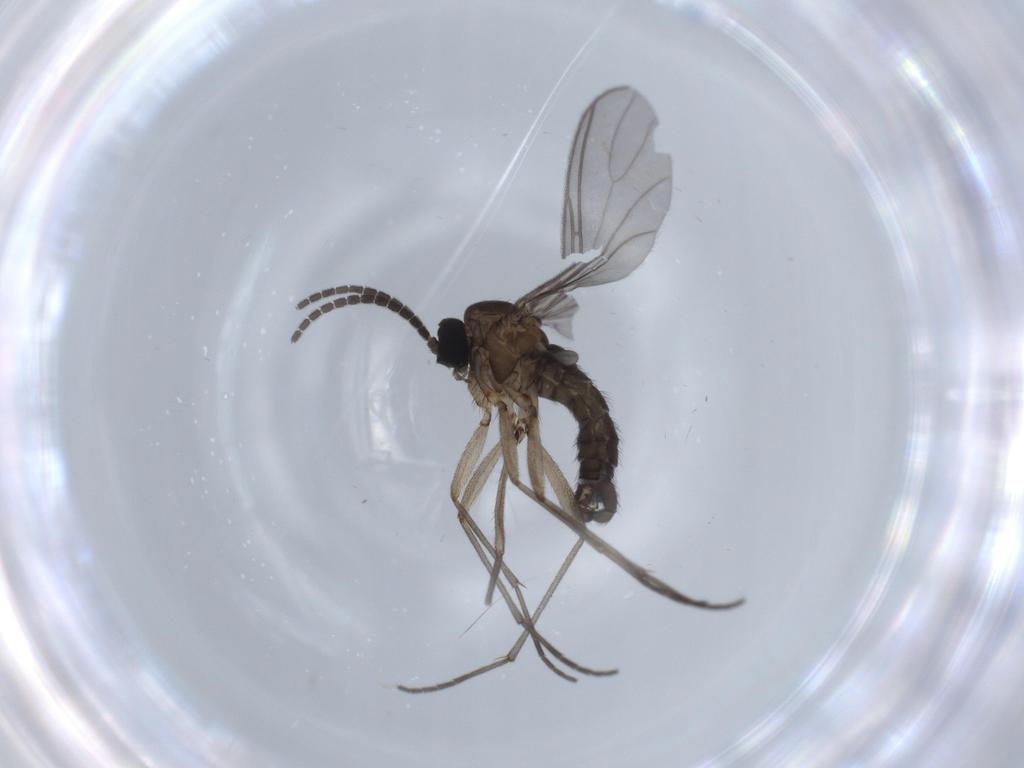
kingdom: Animalia
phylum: Arthropoda
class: Insecta
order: Diptera
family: Sciaridae
